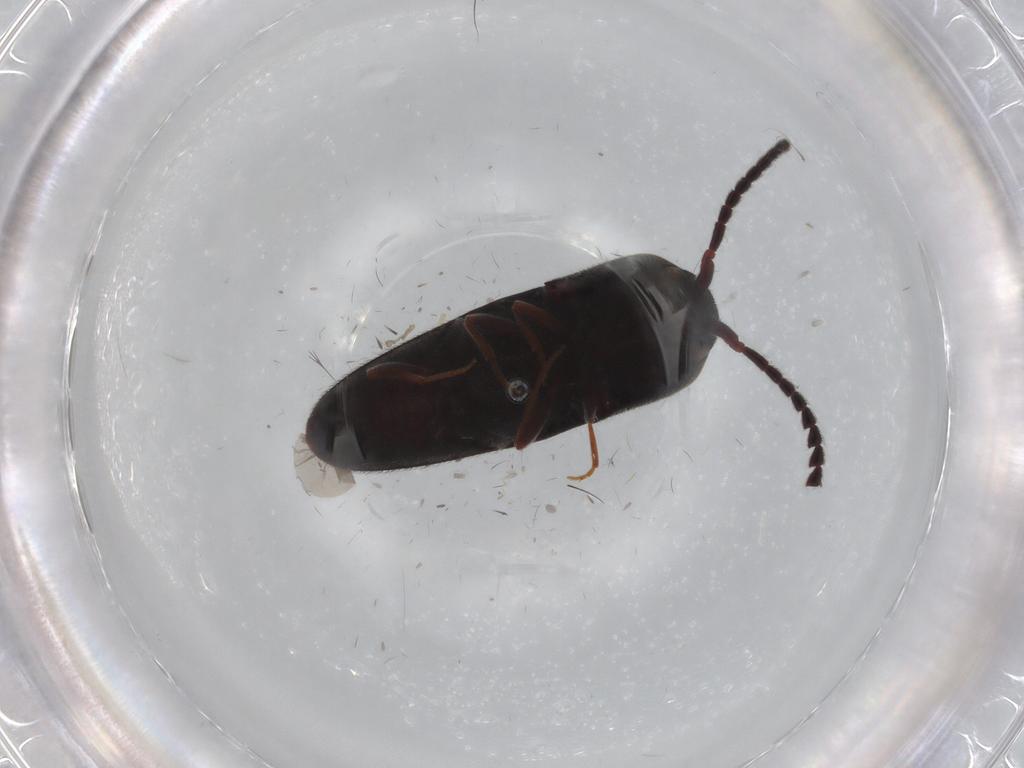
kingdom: Animalia
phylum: Arthropoda
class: Insecta
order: Coleoptera
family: Eucnemidae
